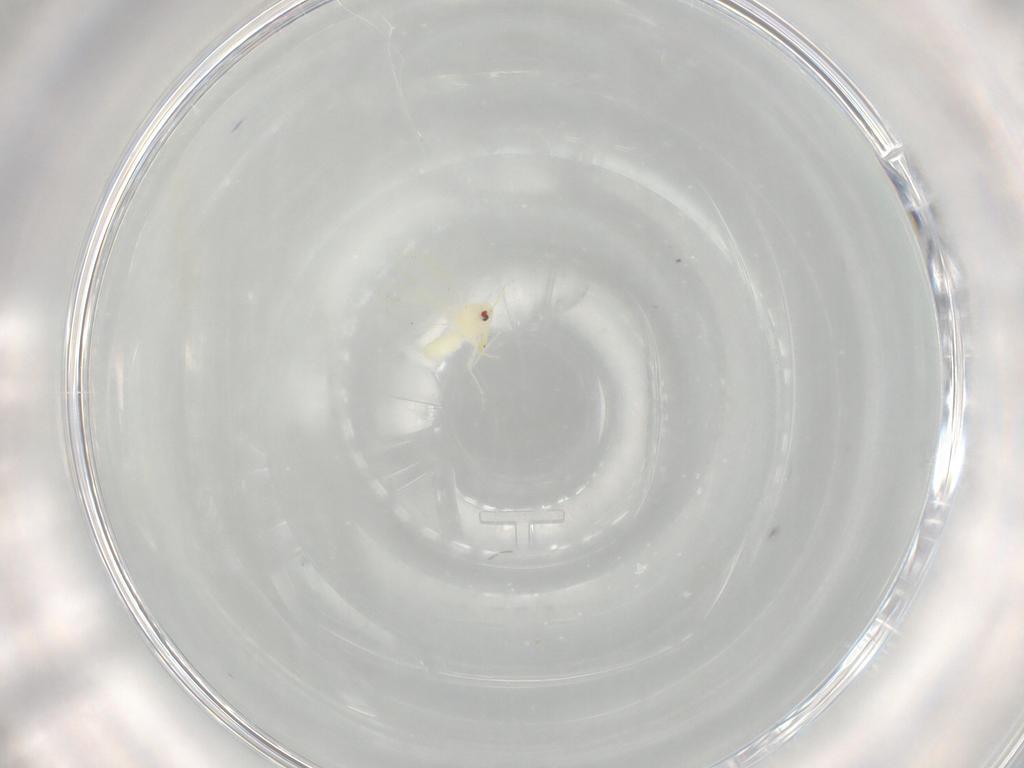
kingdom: Animalia
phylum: Arthropoda
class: Insecta
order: Hemiptera
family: Aleyrodidae
